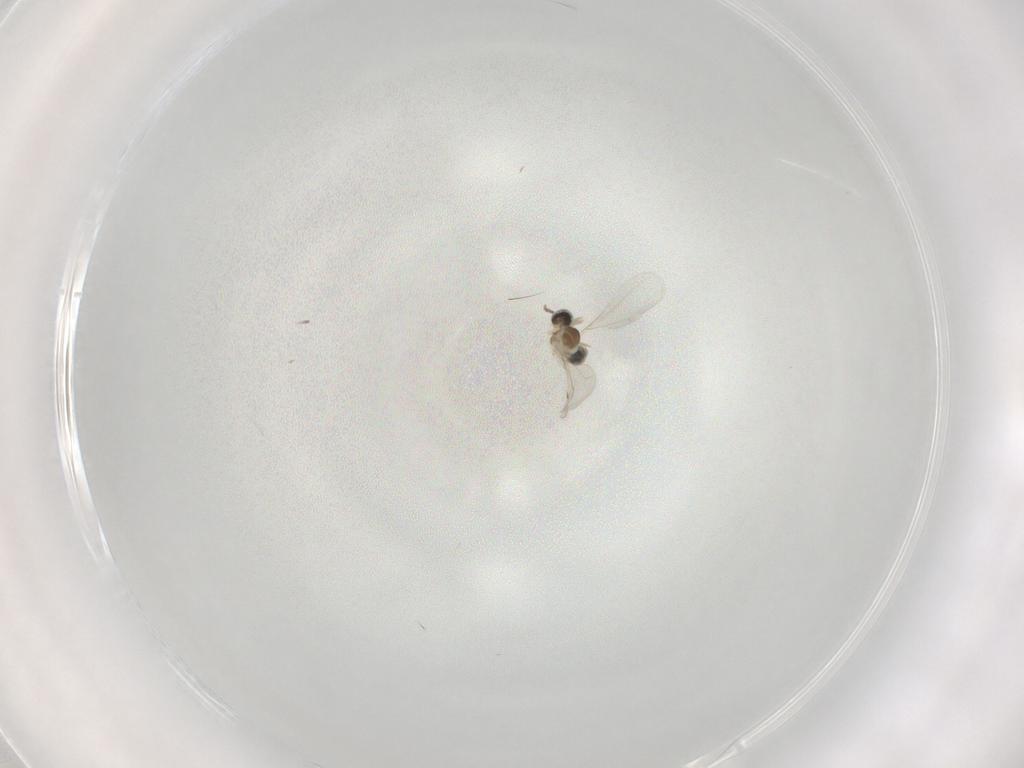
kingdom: Animalia
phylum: Arthropoda
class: Insecta
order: Diptera
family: Cecidomyiidae
